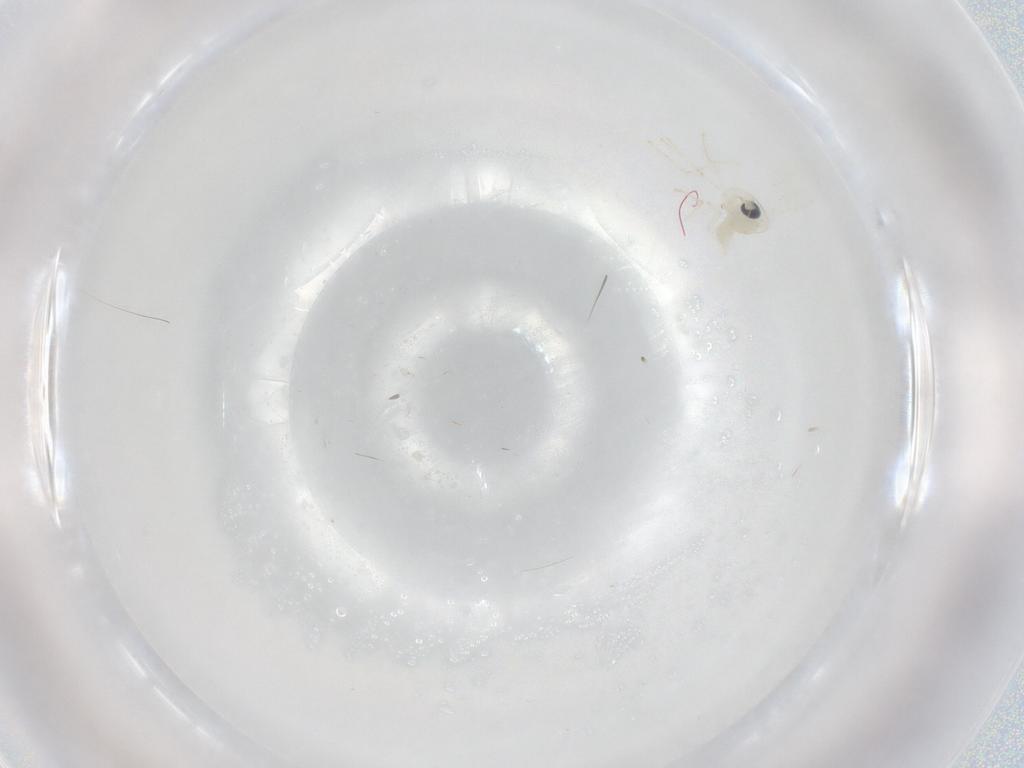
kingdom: Animalia
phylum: Arthropoda
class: Insecta
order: Diptera
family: Cecidomyiidae
